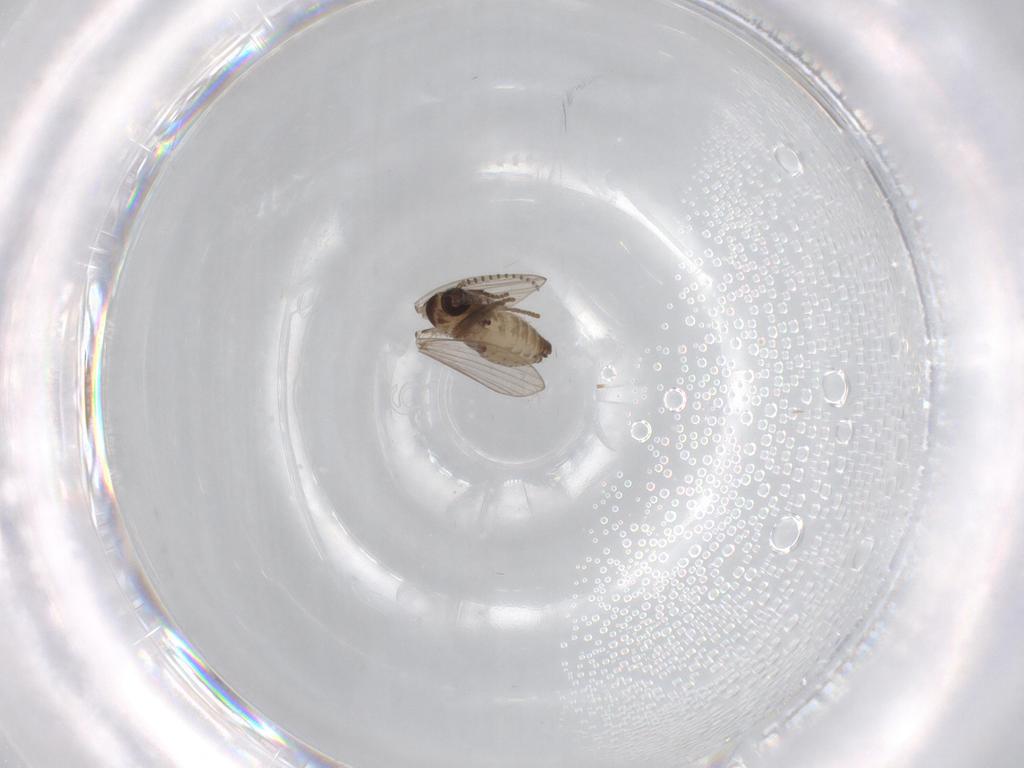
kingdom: Animalia
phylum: Arthropoda
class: Insecta
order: Diptera
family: Psychodidae
